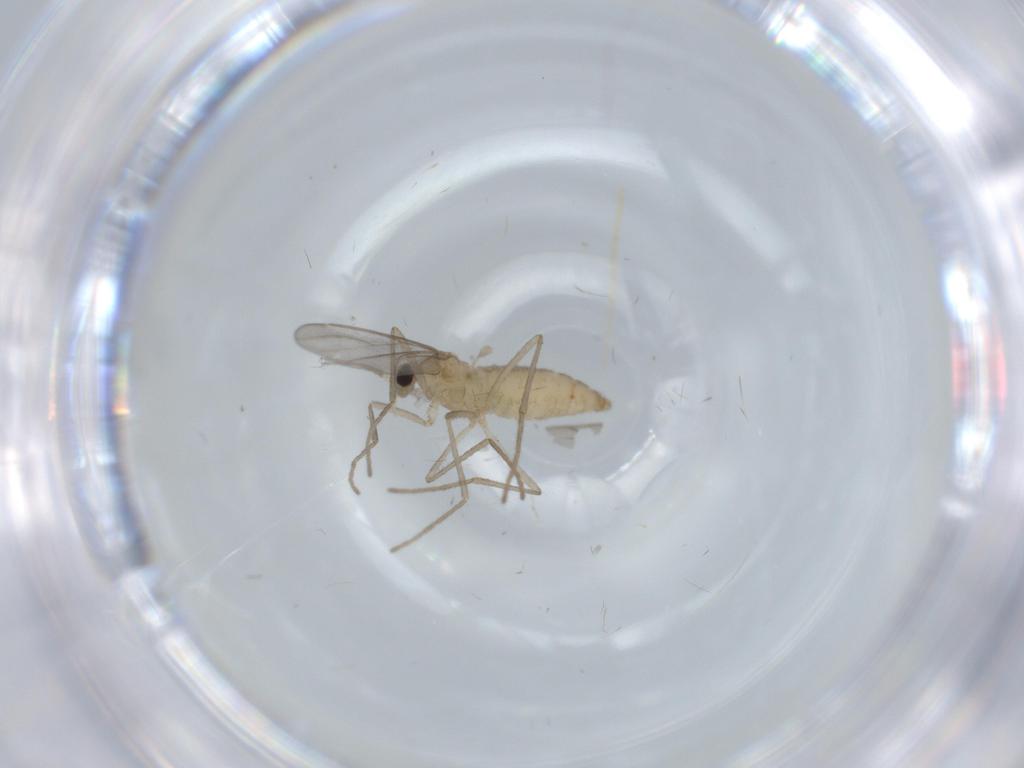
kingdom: Animalia
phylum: Arthropoda
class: Insecta
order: Diptera
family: Cecidomyiidae
